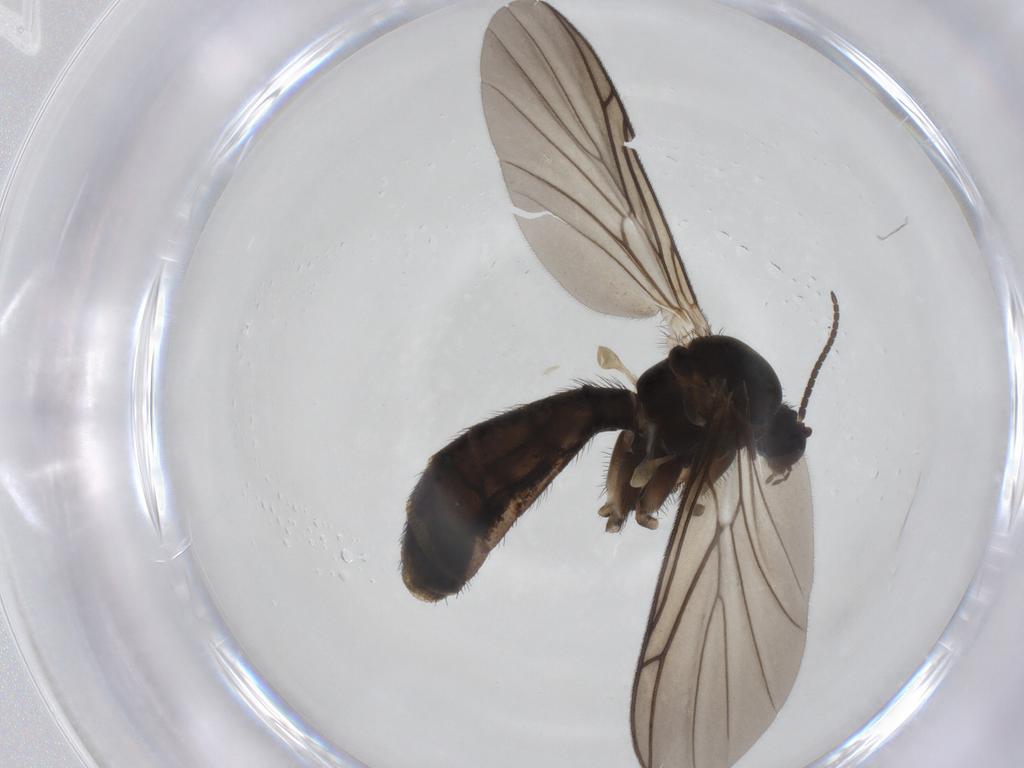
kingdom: Animalia
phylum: Arthropoda
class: Insecta
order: Diptera
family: Keroplatidae
